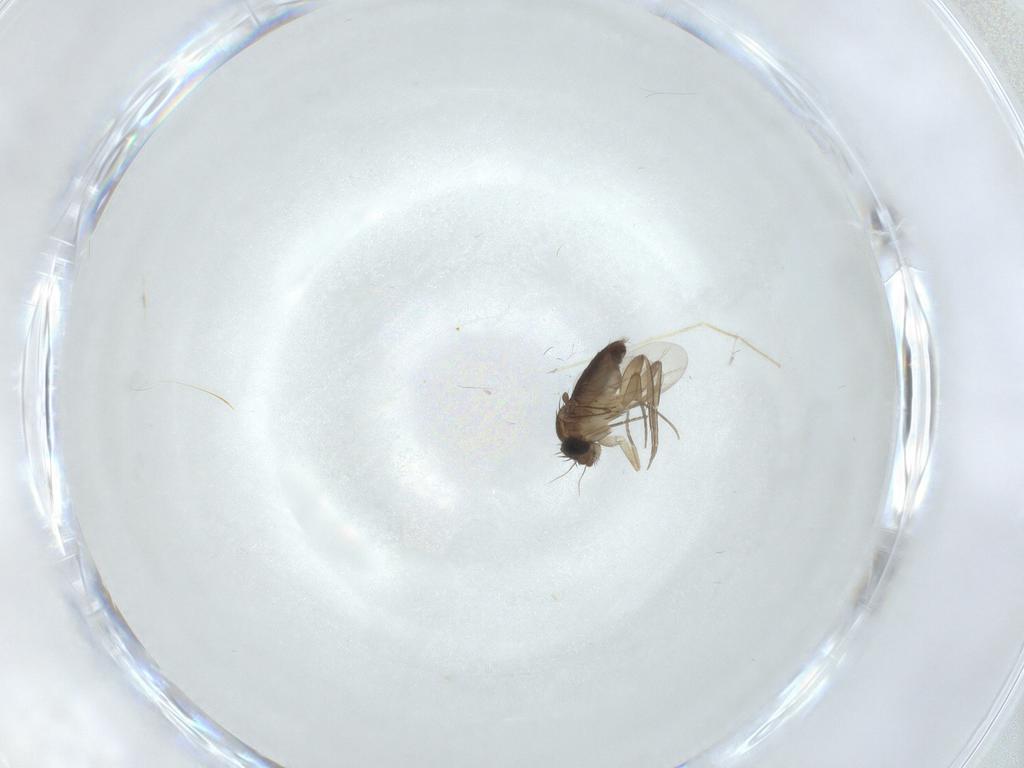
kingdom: Animalia
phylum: Arthropoda
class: Insecta
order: Diptera
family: Phoridae
